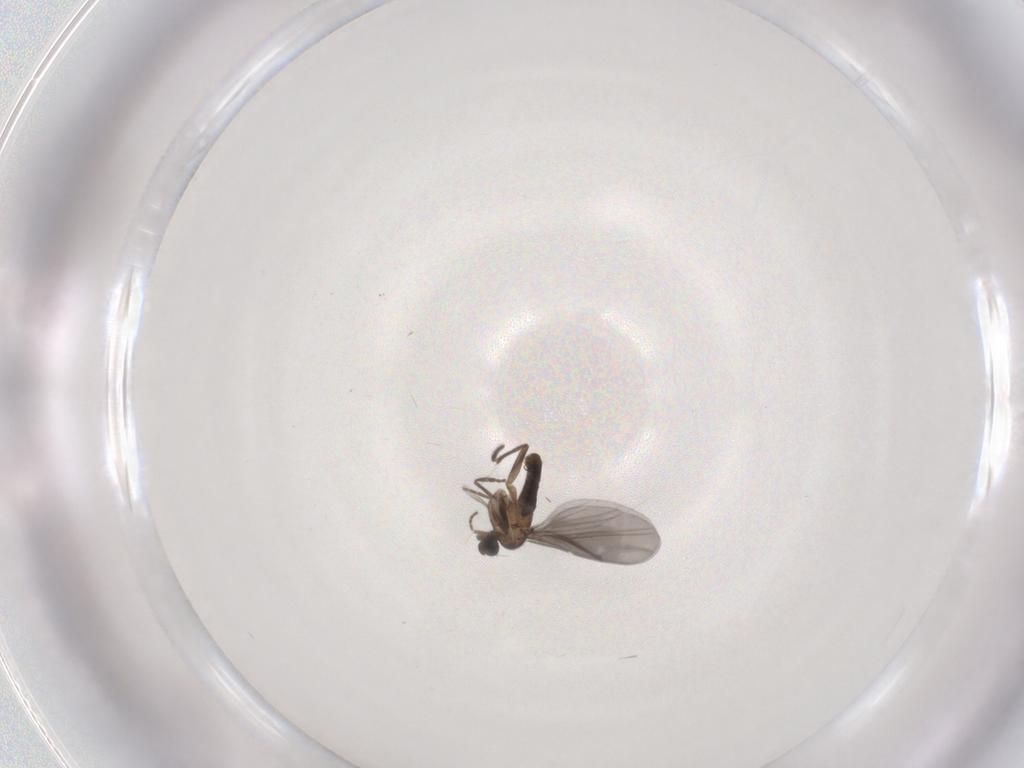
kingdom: Animalia
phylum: Arthropoda
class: Insecta
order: Diptera
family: Phoridae
